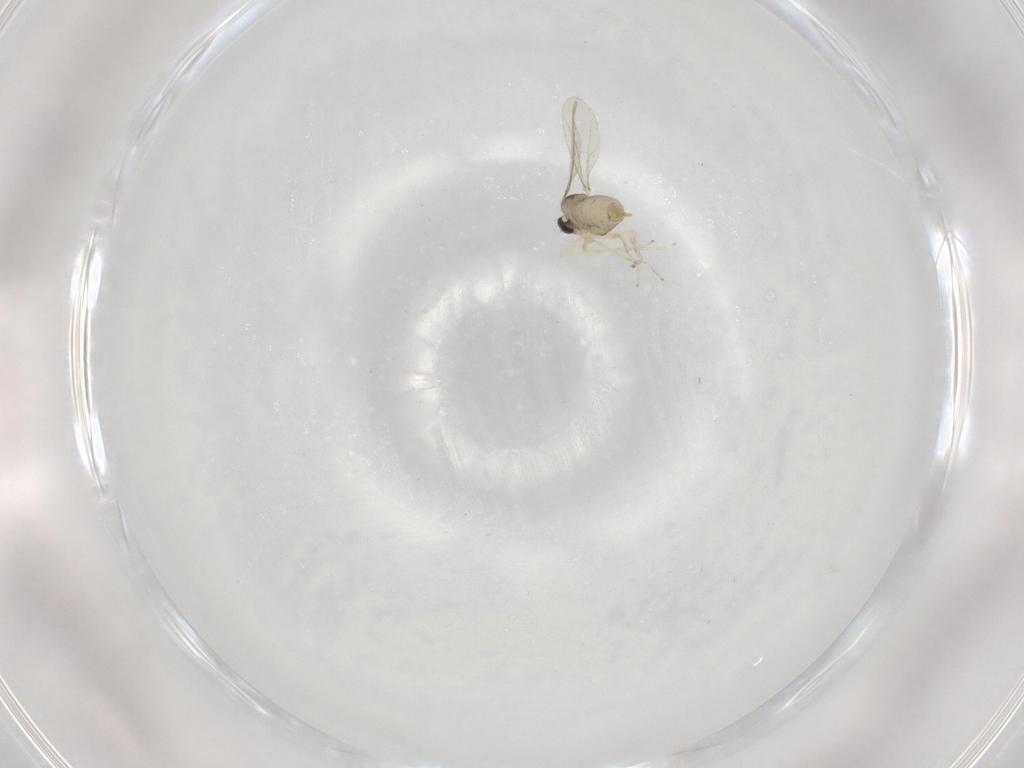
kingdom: Animalia
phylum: Arthropoda
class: Insecta
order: Diptera
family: Cecidomyiidae
